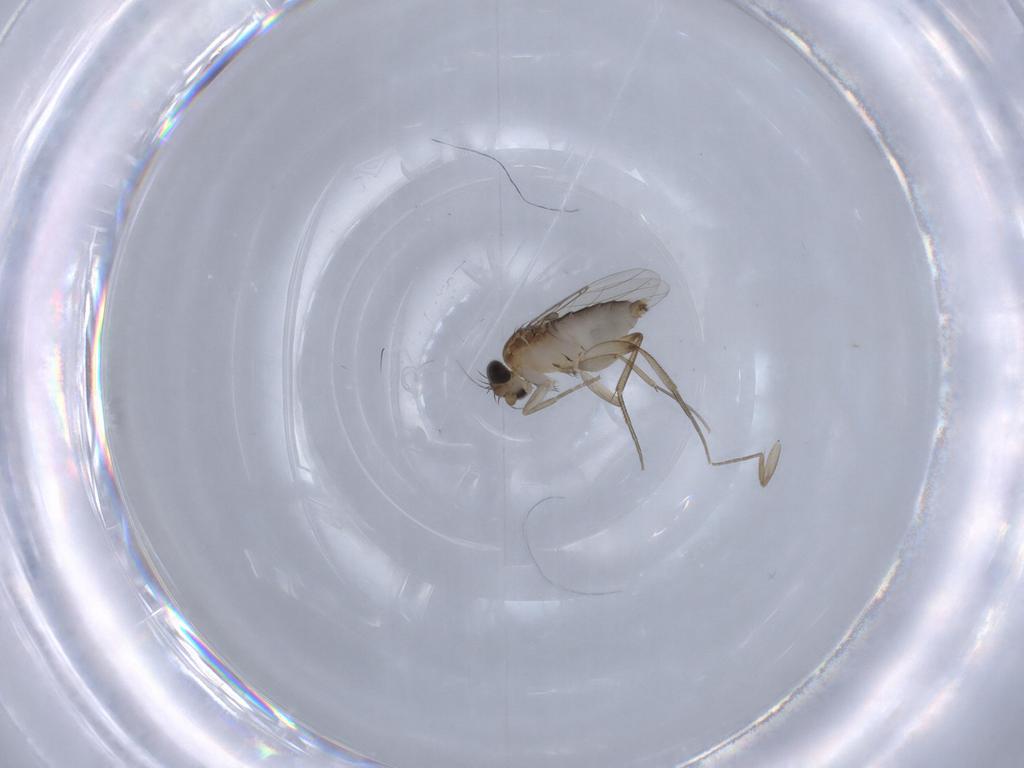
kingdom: Animalia
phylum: Arthropoda
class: Insecta
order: Diptera
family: Phoridae
